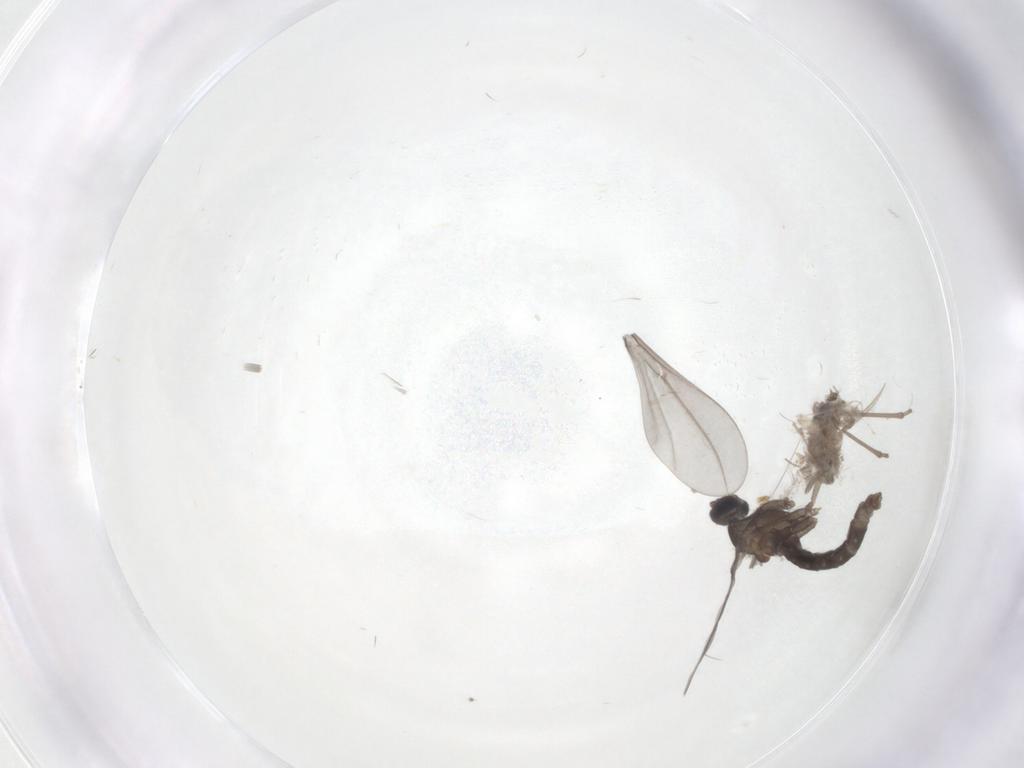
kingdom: Animalia
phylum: Arthropoda
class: Insecta
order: Diptera
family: Cecidomyiidae
